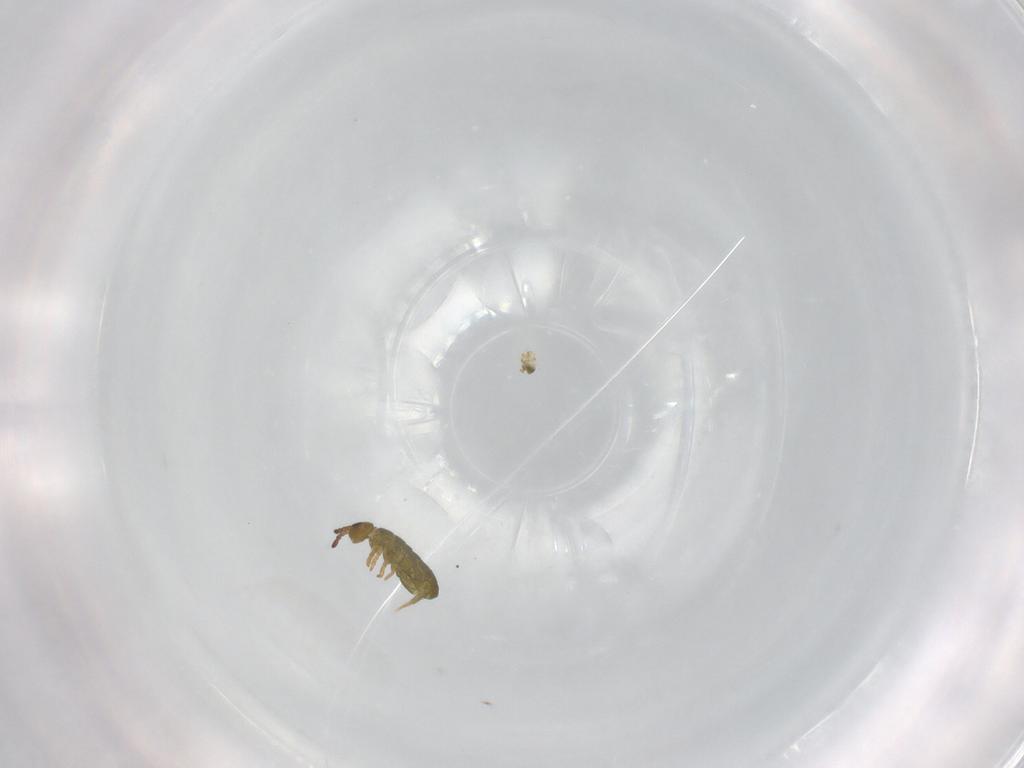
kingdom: Animalia
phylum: Arthropoda
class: Collembola
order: Entomobryomorpha
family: Isotomidae
